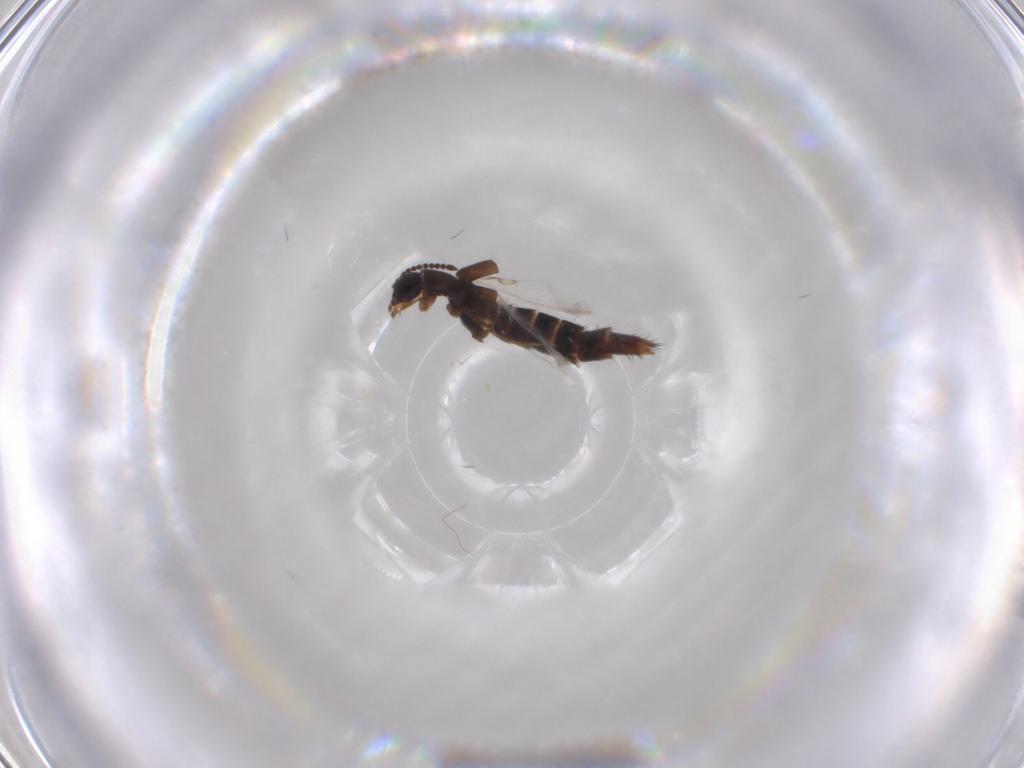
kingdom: Animalia
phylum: Arthropoda
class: Insecta
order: Coleoptera
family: Staphylinidae
